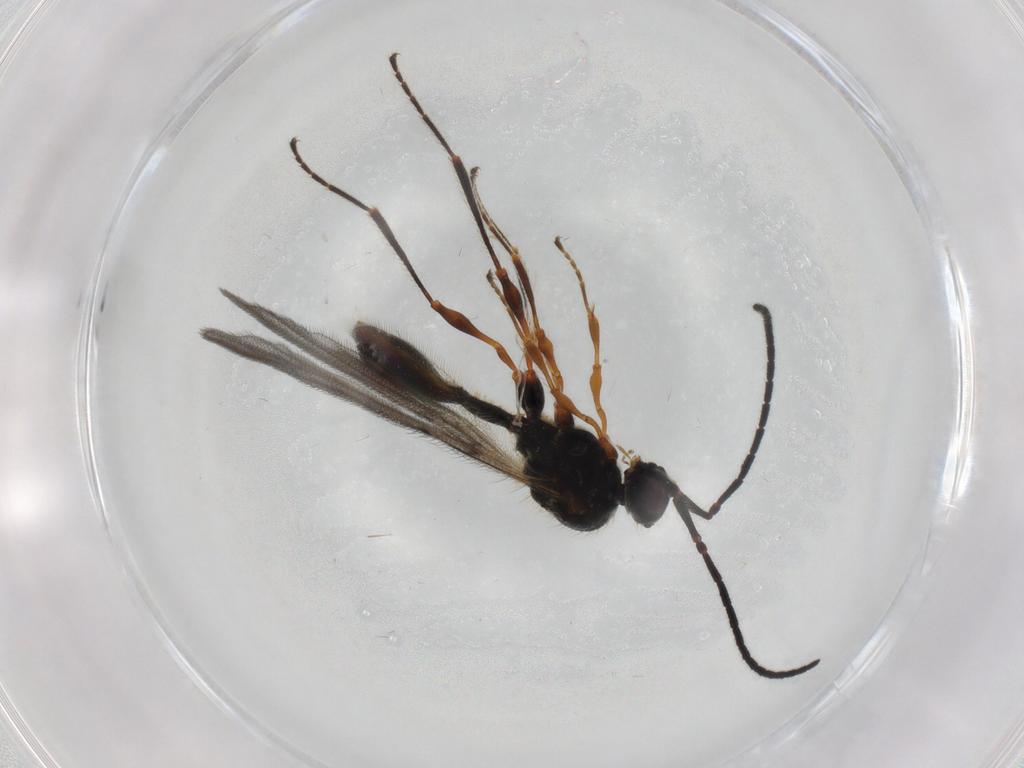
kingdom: Animalia
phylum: Arthropoda
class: Insecta
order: Hymenoptera
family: Diapriidae
